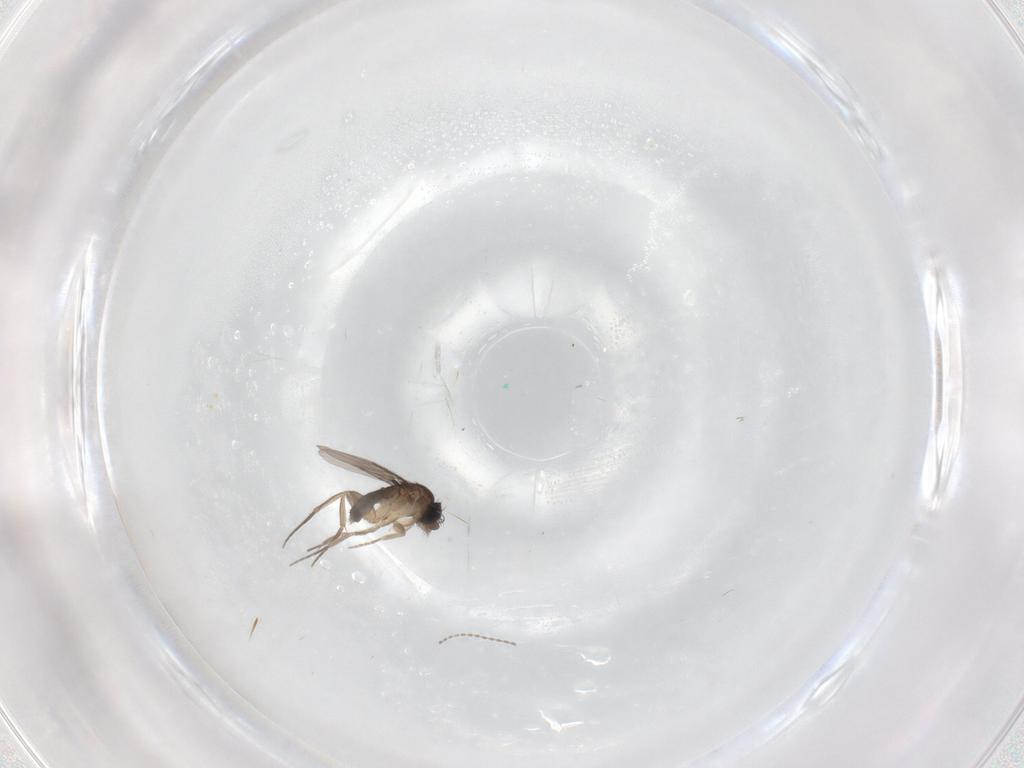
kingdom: Animalia
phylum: Arthropoda
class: Insecta
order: Diptera
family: Phoridae
